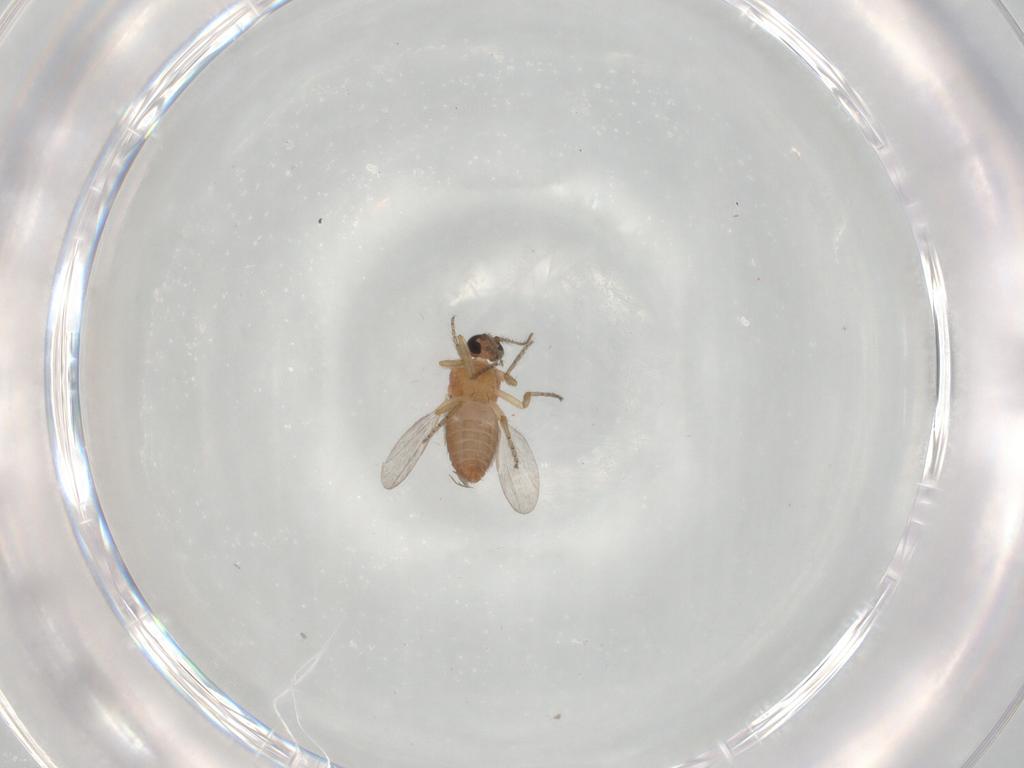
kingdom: Animalia
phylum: Arthropoda
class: Insecta
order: Diptera
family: Ceratopogonidae
